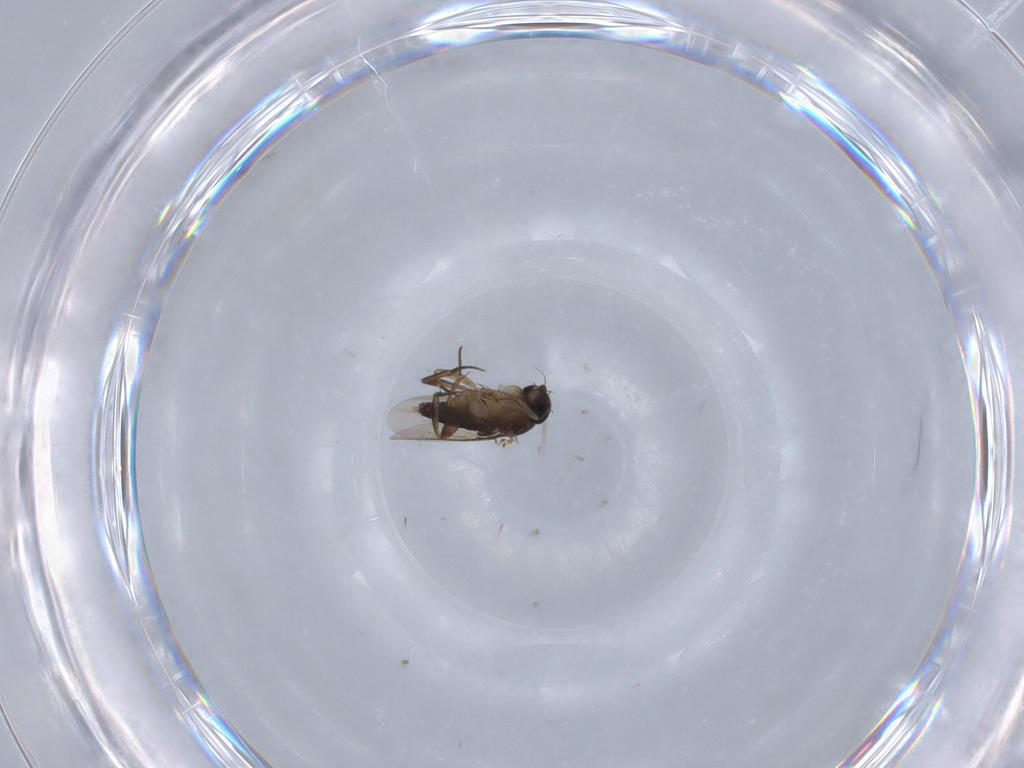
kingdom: Animalia
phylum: Arthropoda
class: Insecta
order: Diptera
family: Phoridae
